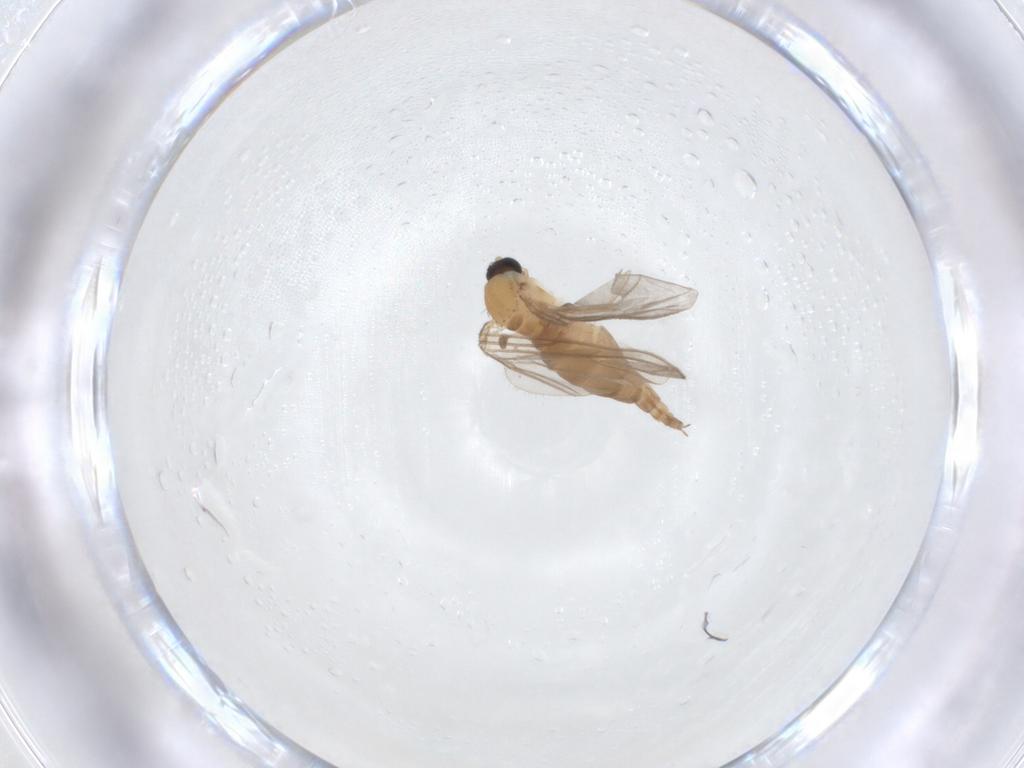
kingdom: Animalia
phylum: Arthropoda
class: Insecta
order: Diptera
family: Sciaridae
